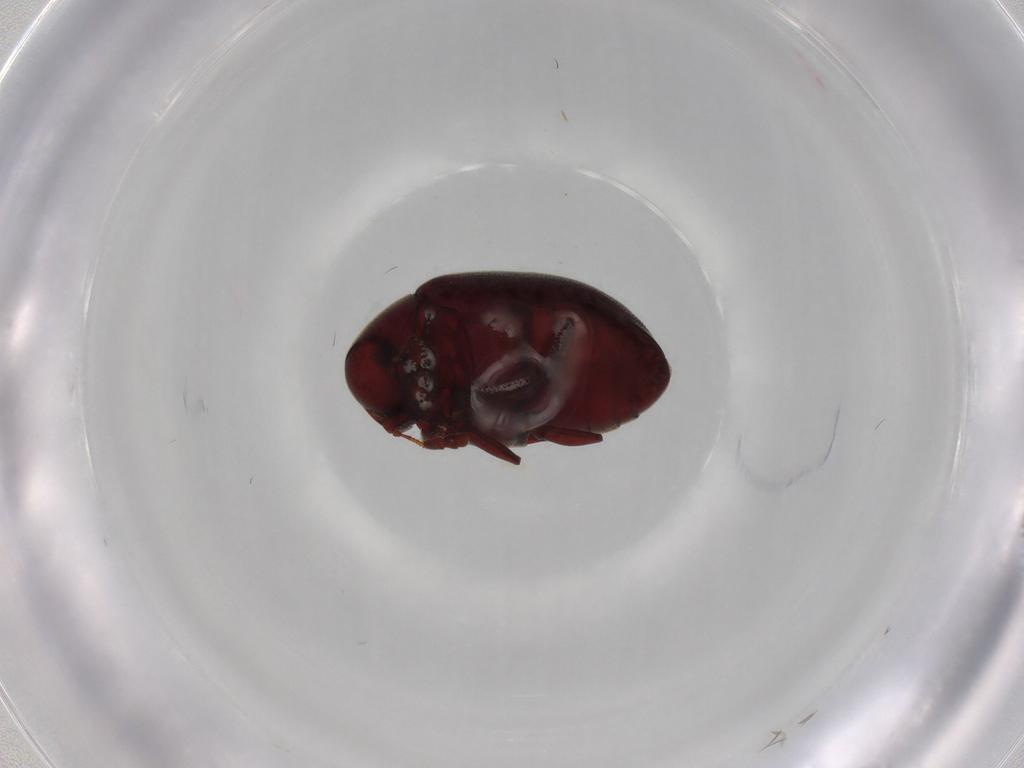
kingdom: Animalia
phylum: Arthropoda
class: Insecta
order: Coleoptera
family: Ptinidae
